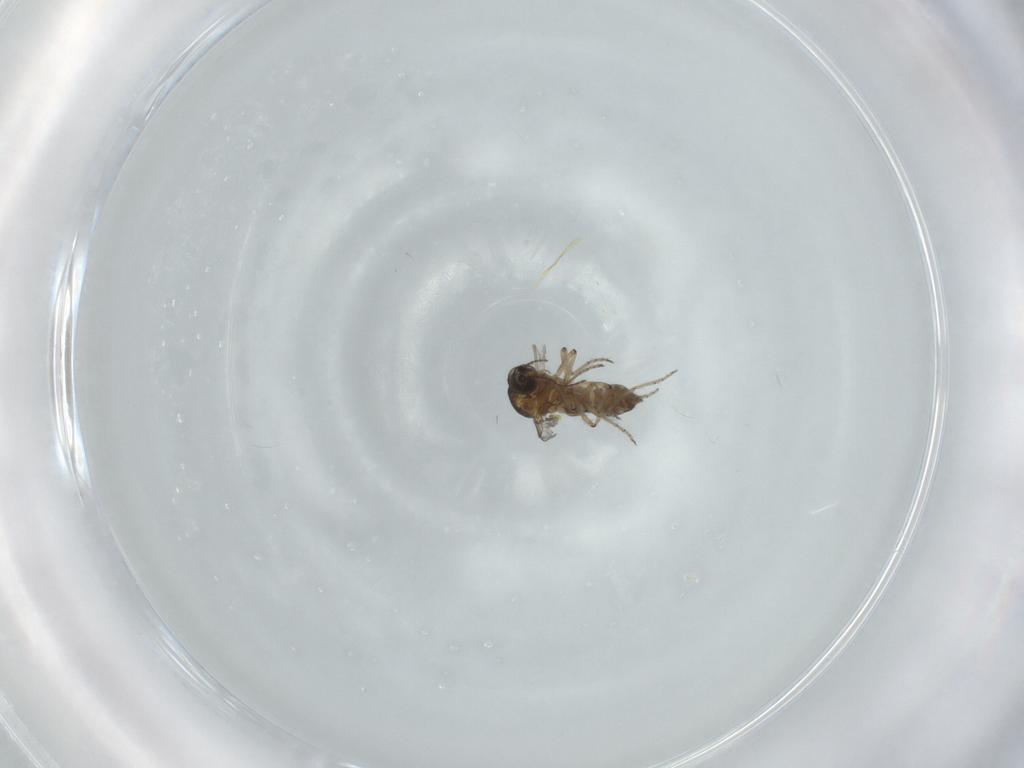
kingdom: Animalia
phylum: Arthropoda
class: Insecta
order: Diptera
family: Ceratopogonidae
